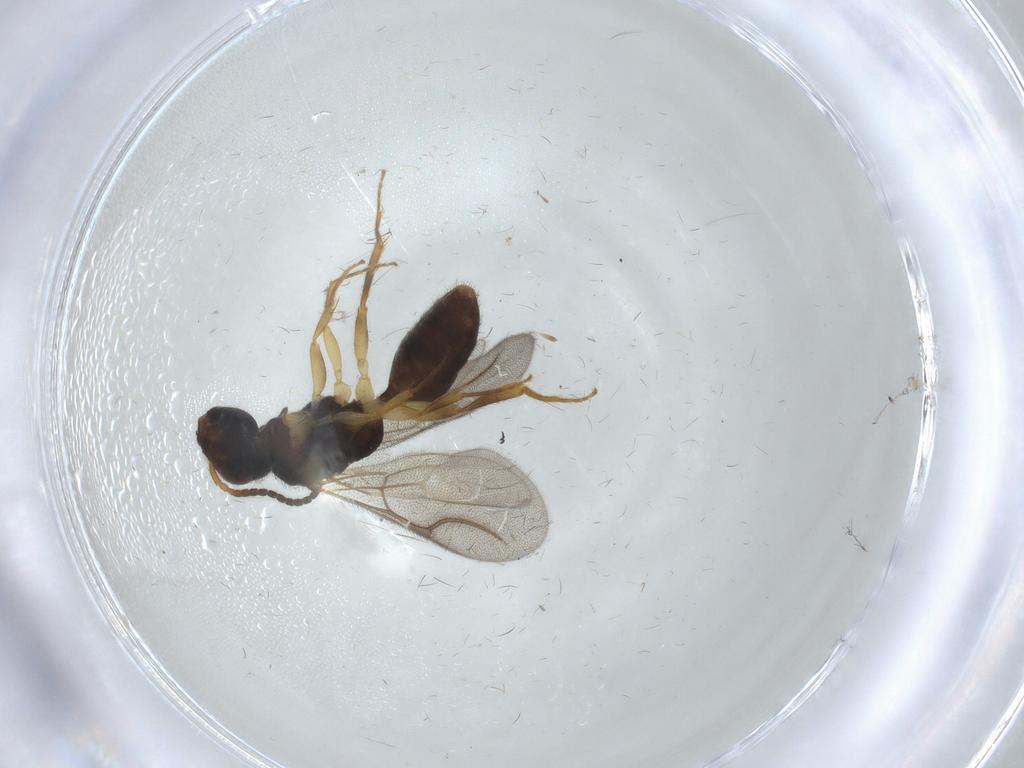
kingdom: Animalia
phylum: Arthropoda
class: Insecta
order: Hymenoptera
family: Bethylidae
